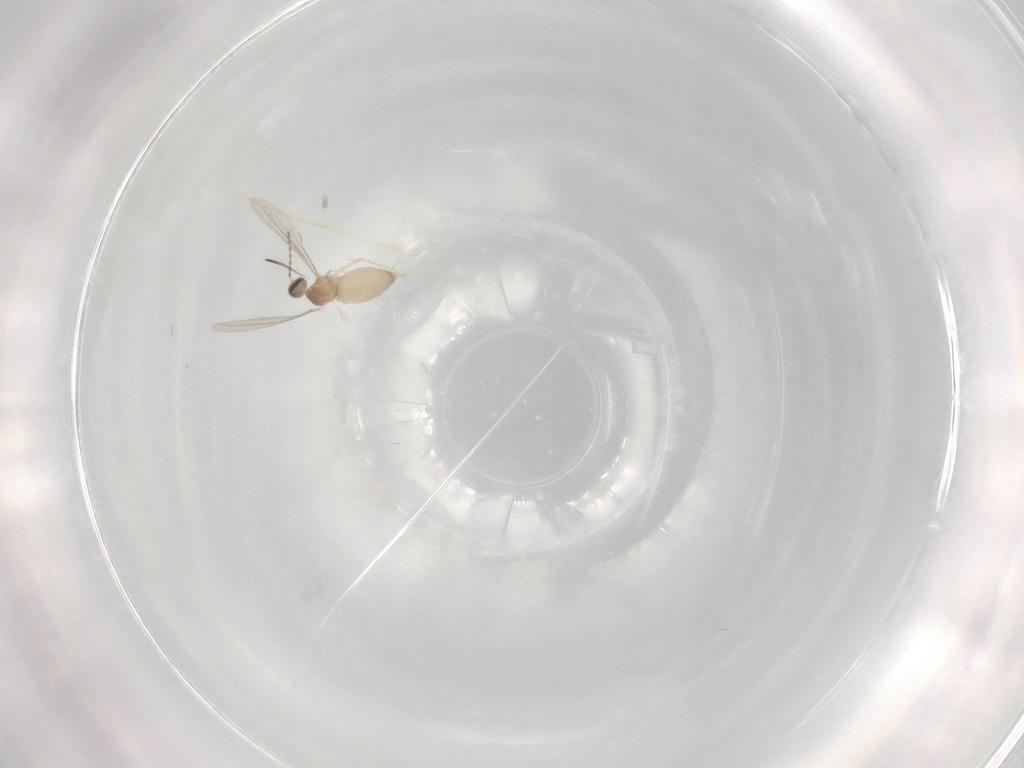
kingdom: Animalia
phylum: Arthropoda
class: Insecta
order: Diptera
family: Cecidomyiidae
